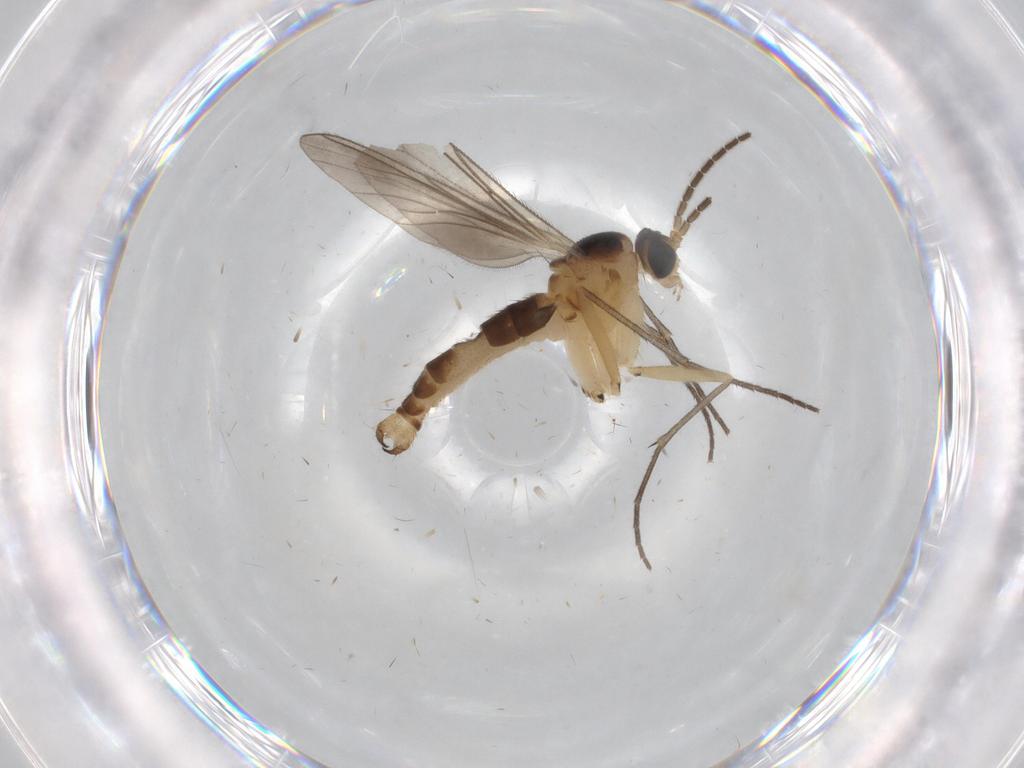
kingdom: Animalia
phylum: Arthropoda
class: Insecta
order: Diptera
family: Sciaridae
